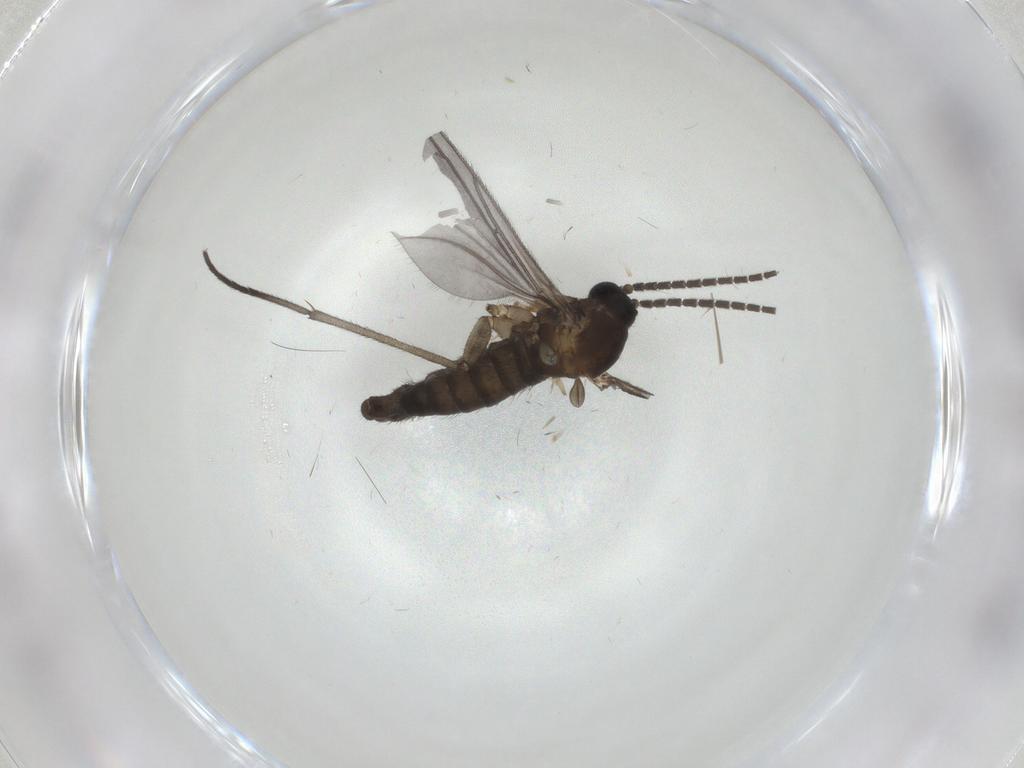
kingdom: Animalia
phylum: Arthropoda
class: Insecta
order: Diptera
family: Sciaridae
